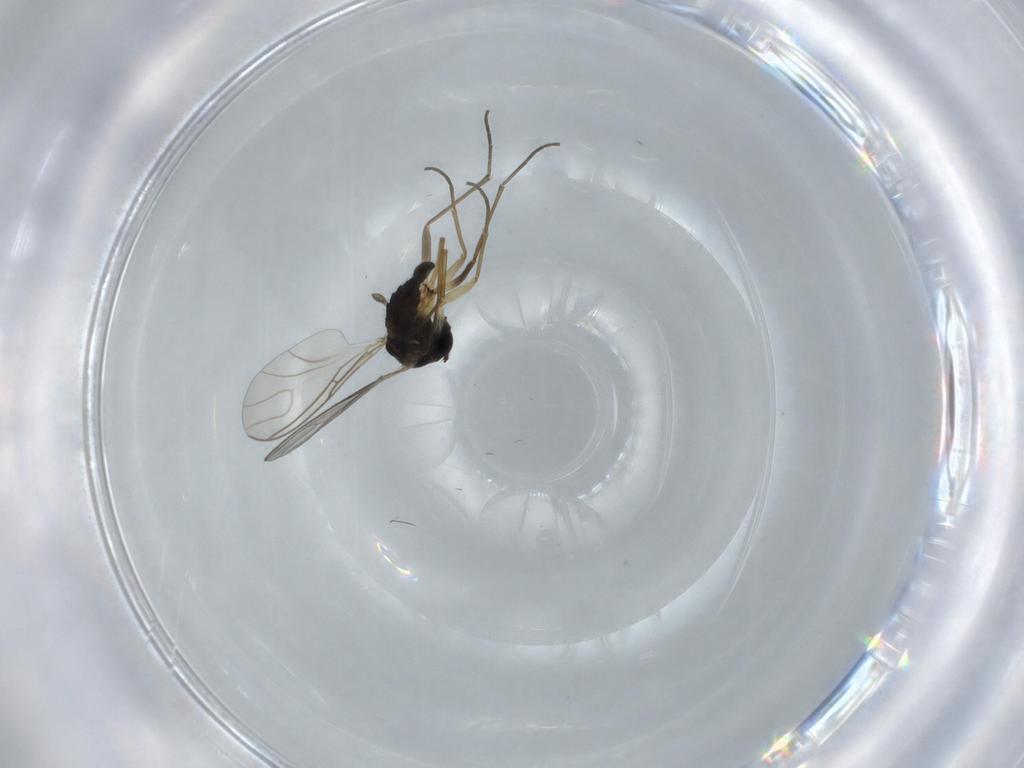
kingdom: Animalia
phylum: Arthropoda
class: Insecta
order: Diptera
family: Sciaridae
